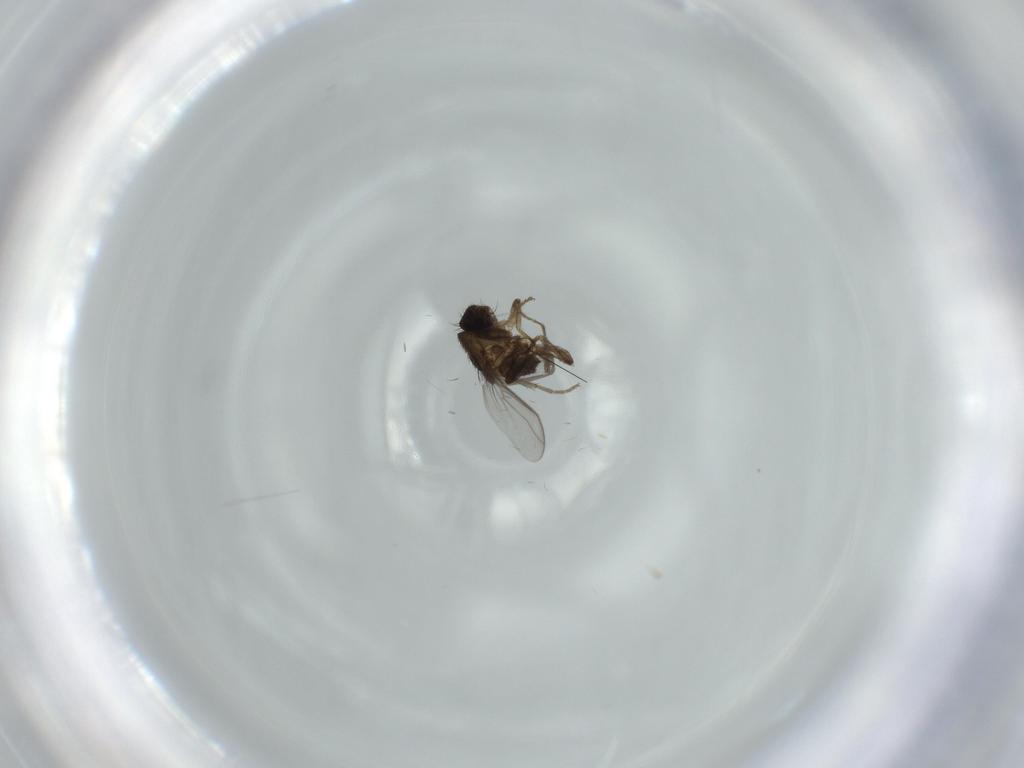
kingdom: Animalia
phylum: Arthropoda
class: Insecta
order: Diptera
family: Sphaeroceridae
